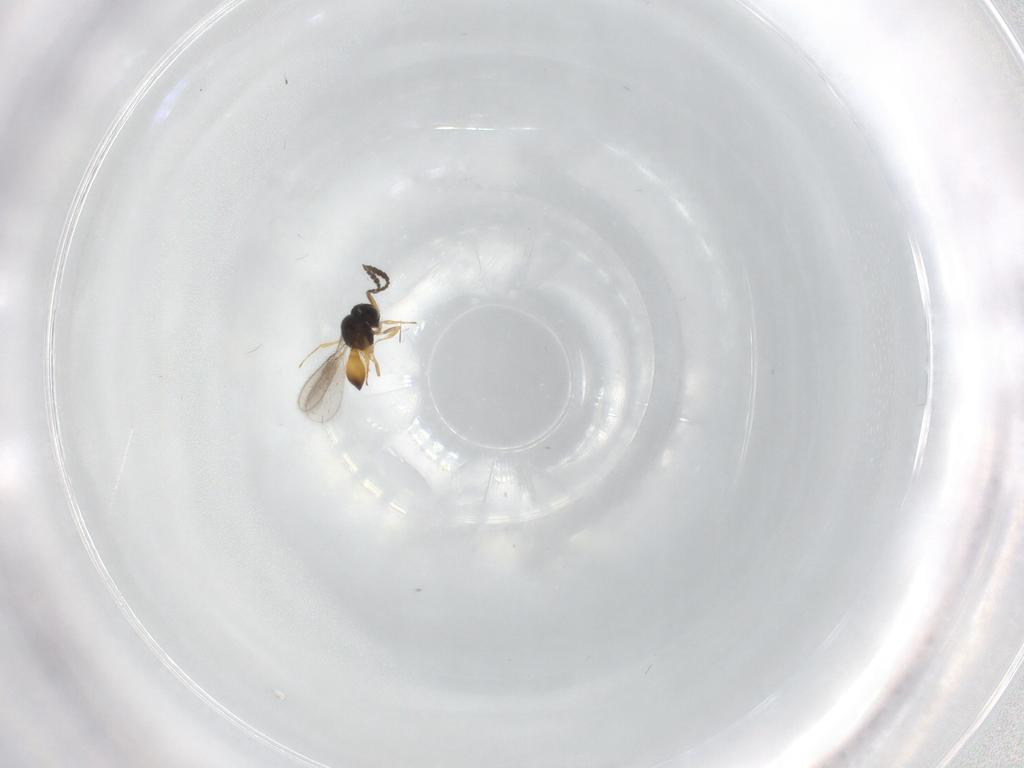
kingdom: Animalia
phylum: Arthropoda
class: Insecta
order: Hymenoptera
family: Scelionidae
